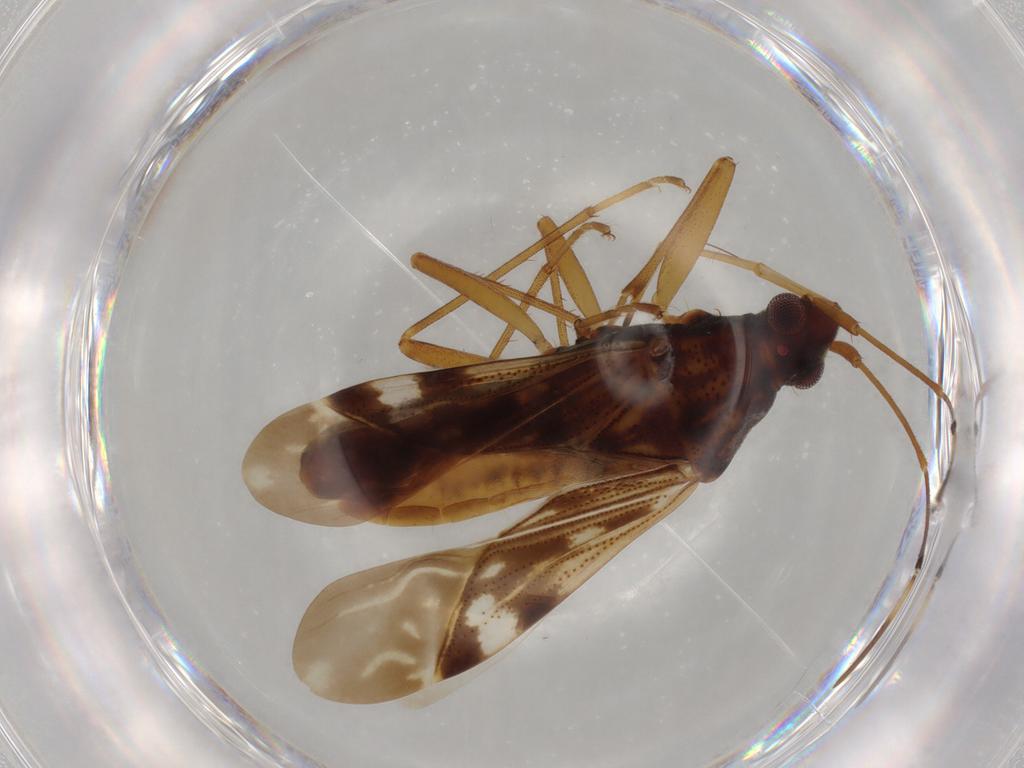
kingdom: Animalia
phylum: Arthropoda
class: Insecta
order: Hemiptera
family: Rhyparochromidae
